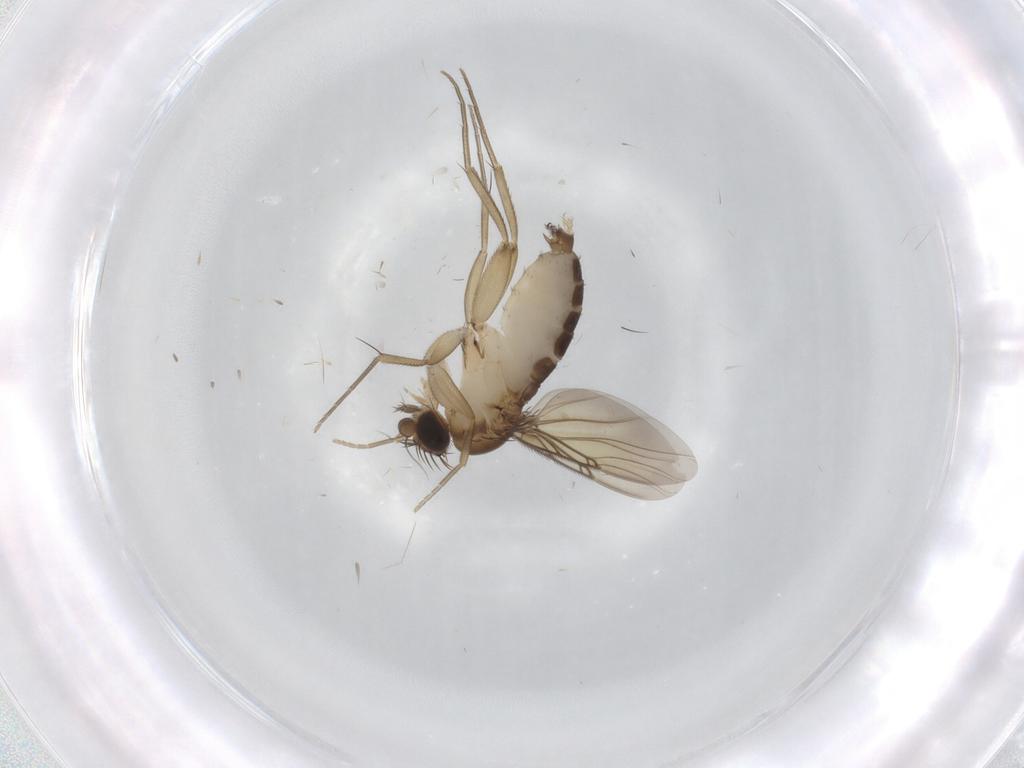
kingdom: Animalia
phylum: Arthropoda
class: Insecta
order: Diptera
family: Phoridae
